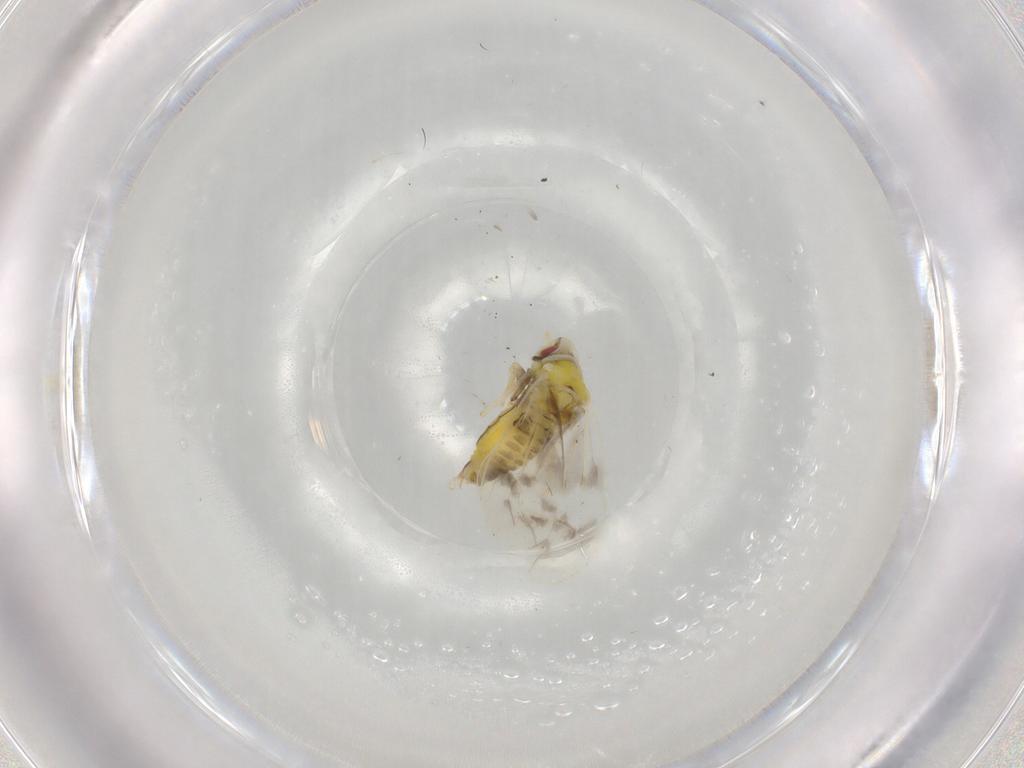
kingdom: Animalia
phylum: Arthropoda
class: Insecta
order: Hemiptera
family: Aleyrodidae
